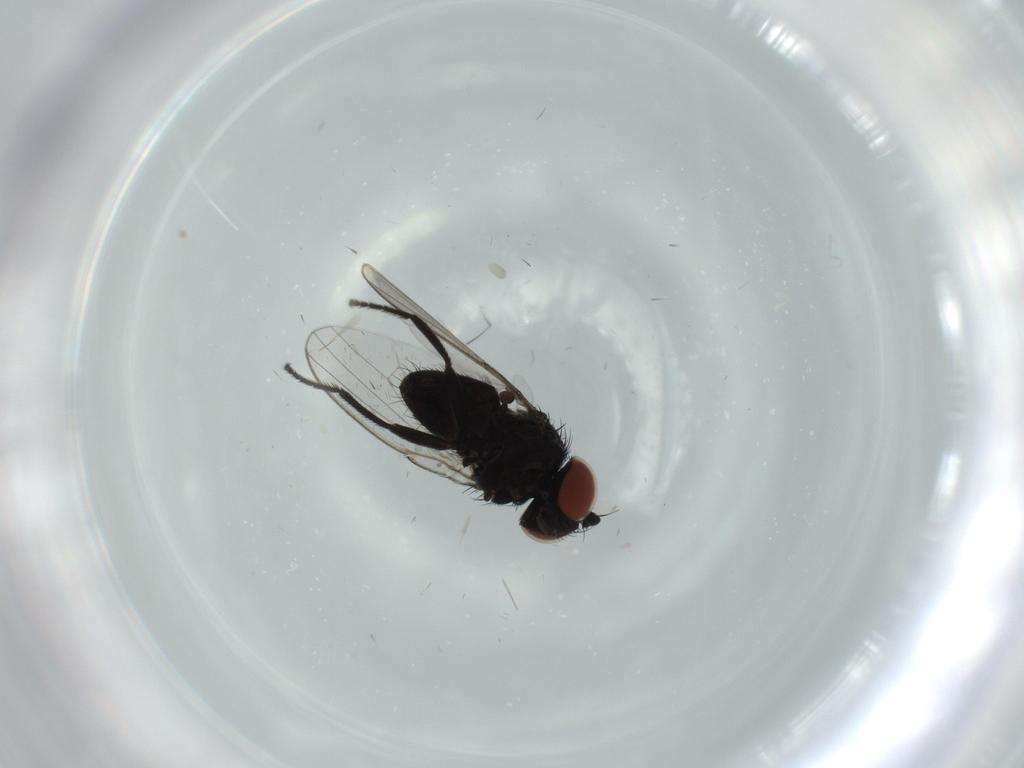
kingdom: Animalia
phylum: Arthropoda
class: Insecta
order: Diptera
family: Milichiidae
